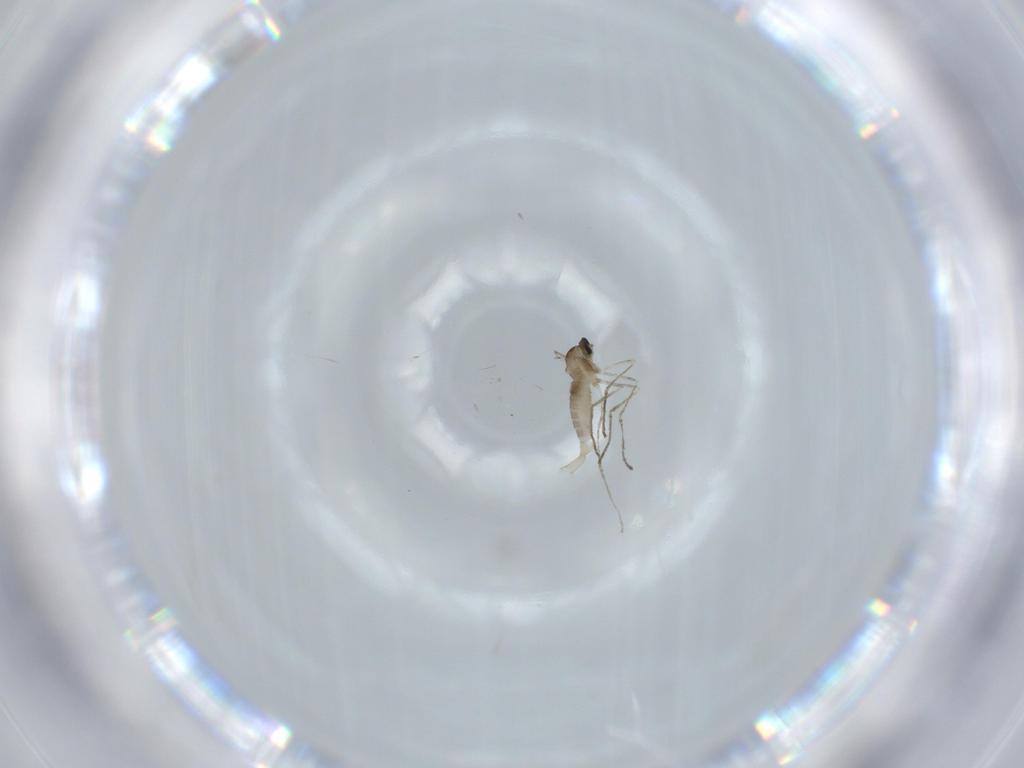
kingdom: Animalia
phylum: Arthropoda
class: Insecta
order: Diptera
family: Cecidomyiidae
